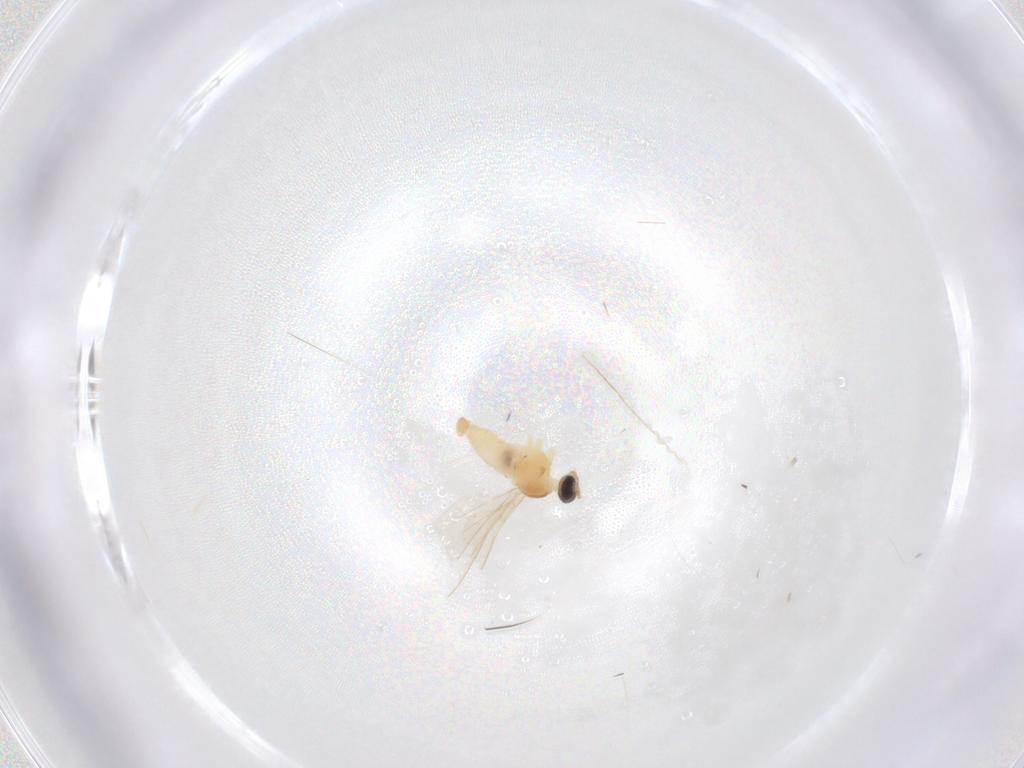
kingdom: Animalia
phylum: Arthropoda
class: Insecta
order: Diptera
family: Cecidomyiidae
